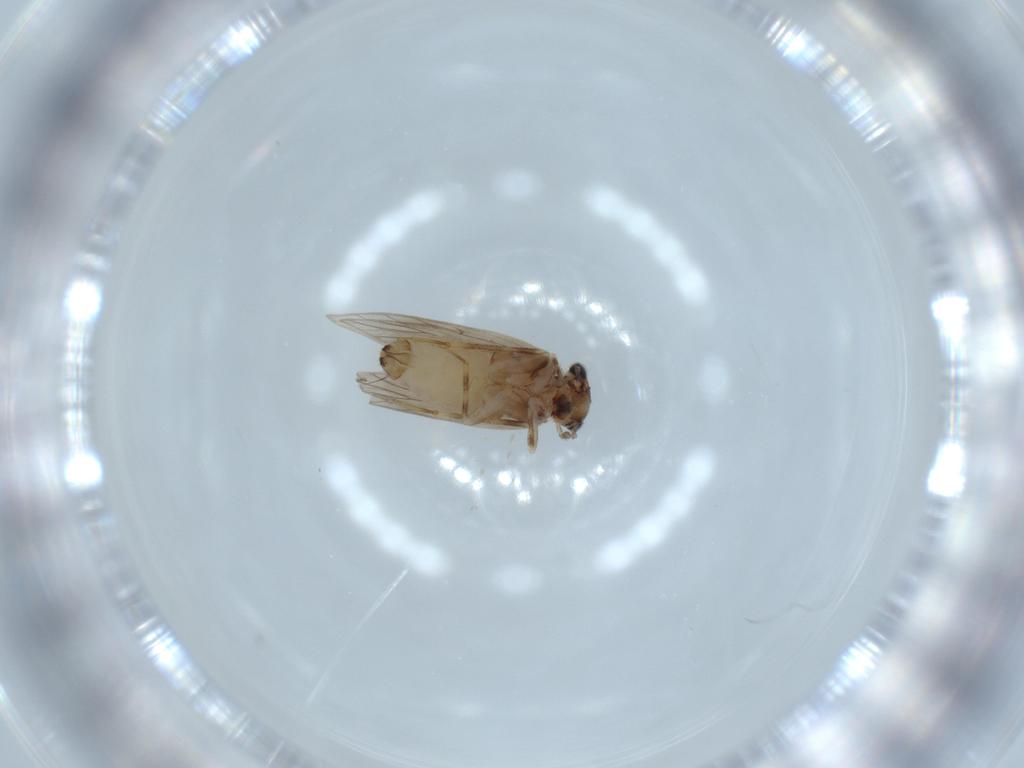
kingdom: Animalia
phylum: Arthropoda
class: Insecta
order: Psocodea
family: Lepidopsocidae
